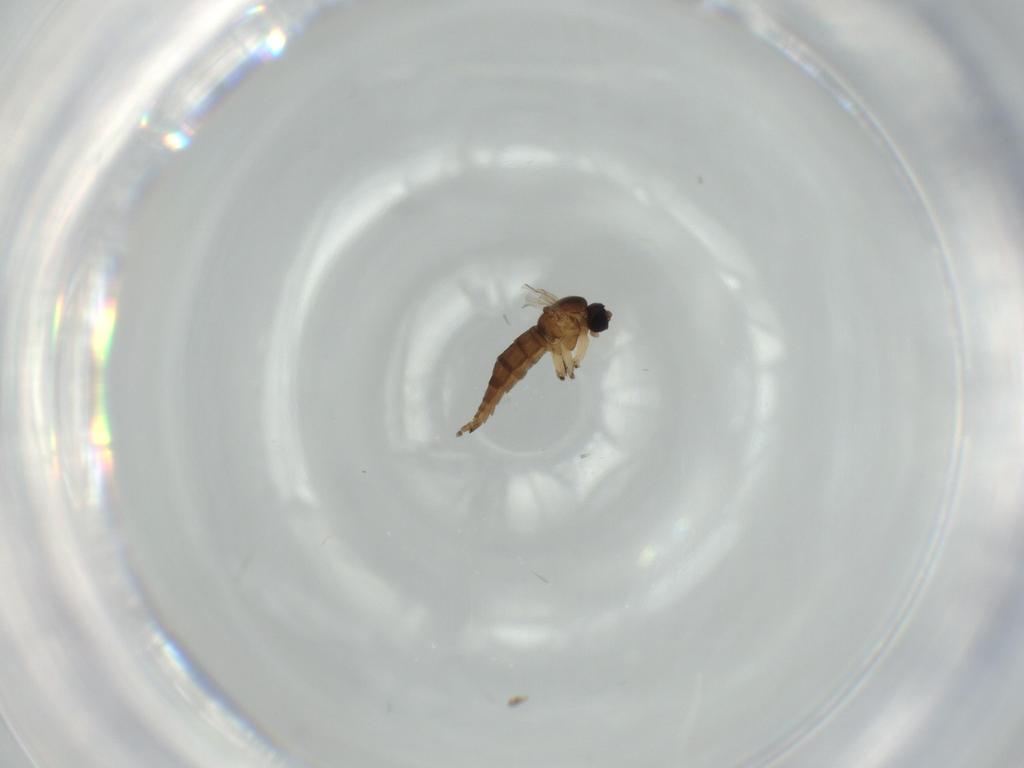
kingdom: Animalia
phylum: Arthropoda
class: Insecta
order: Diptera
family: Sciaridae
